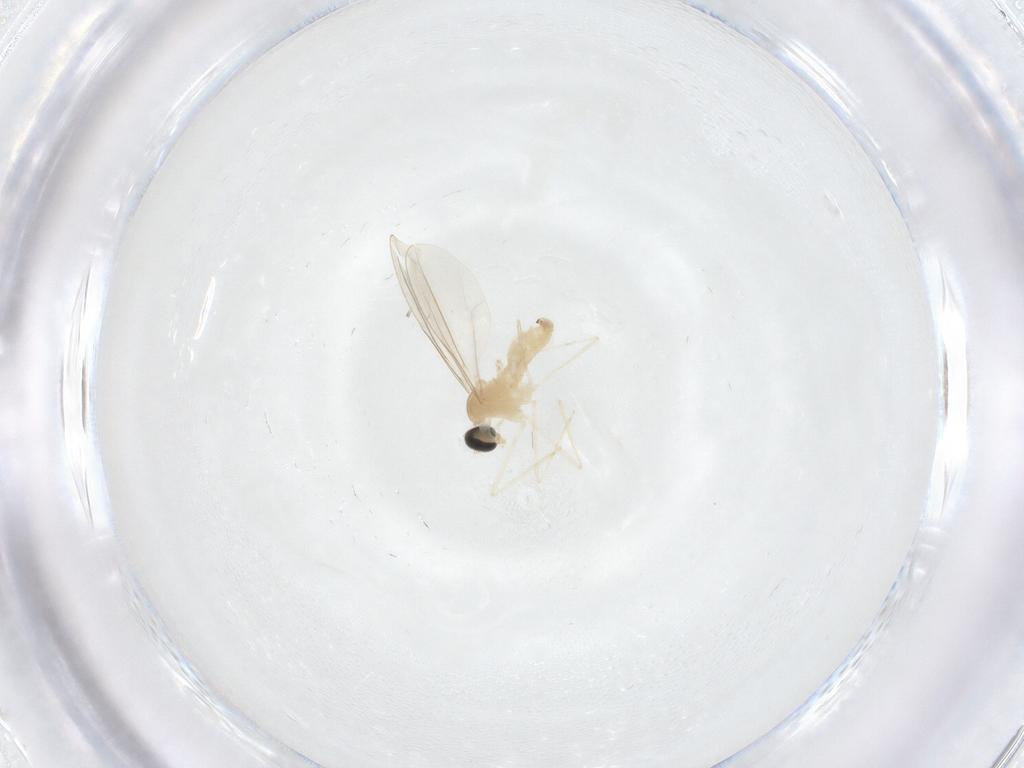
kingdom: Animalia
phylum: Arthropoda
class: Insecta
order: Diptera
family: Cecidomyiidae
